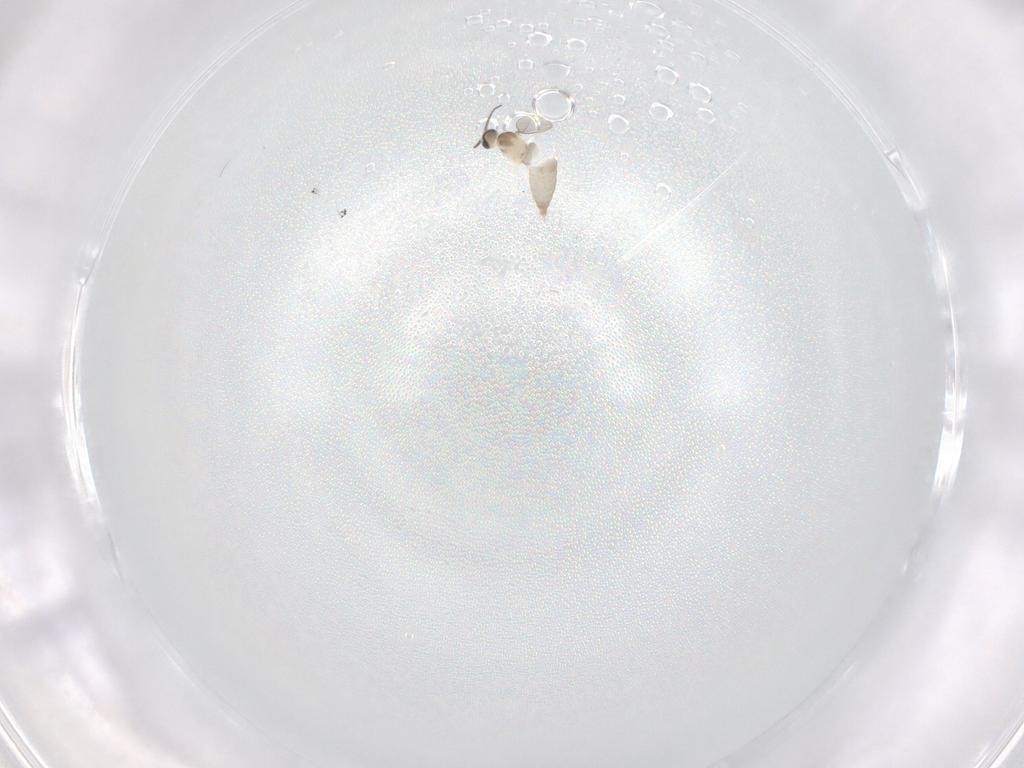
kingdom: Animalia
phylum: Arthropoda
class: Insecta
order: Diptera
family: Cecidomyiidae
